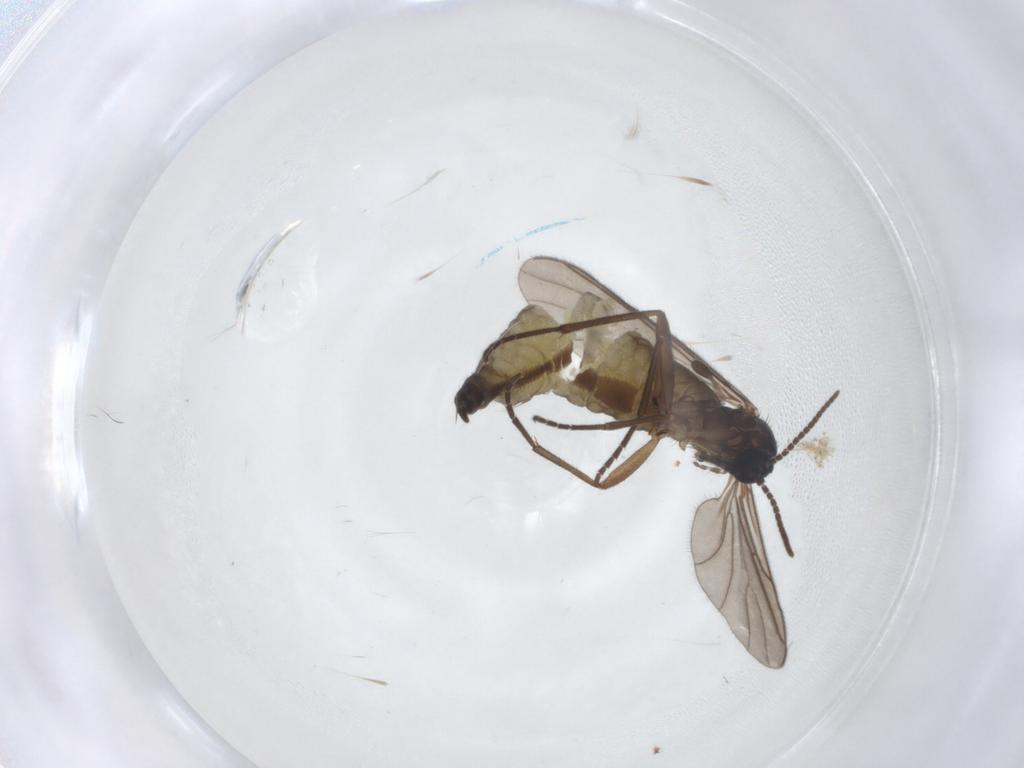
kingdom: Animalia
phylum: Arthropoda
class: Insecta
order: Diptera
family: Sciaridae
